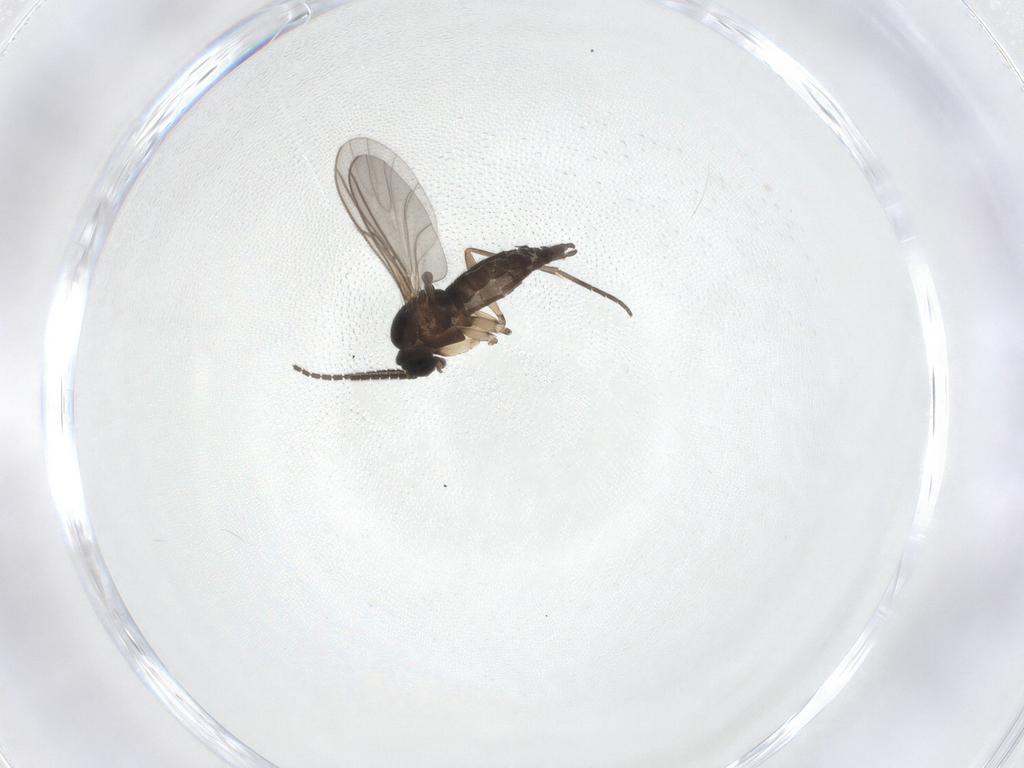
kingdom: Animalia
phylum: Arthropoda
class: Insecta
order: Diptera
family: Sciaridae
